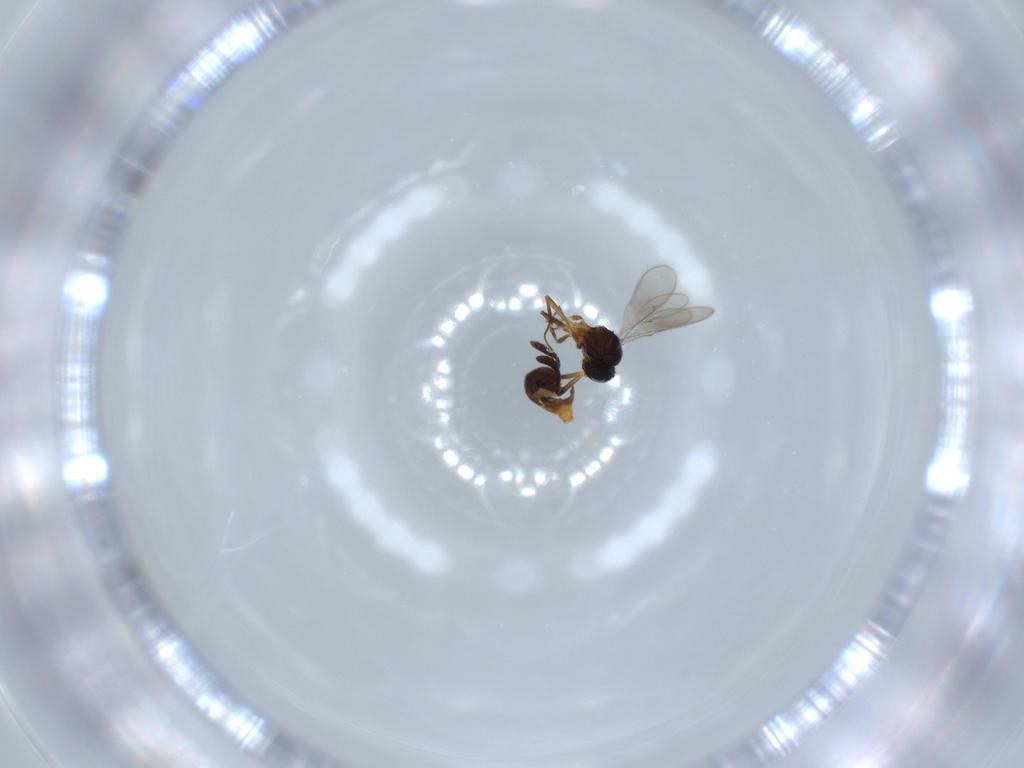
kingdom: Animalia
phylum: Arthropoda
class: Insecta
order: Hymenoptera
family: Scelionidae
